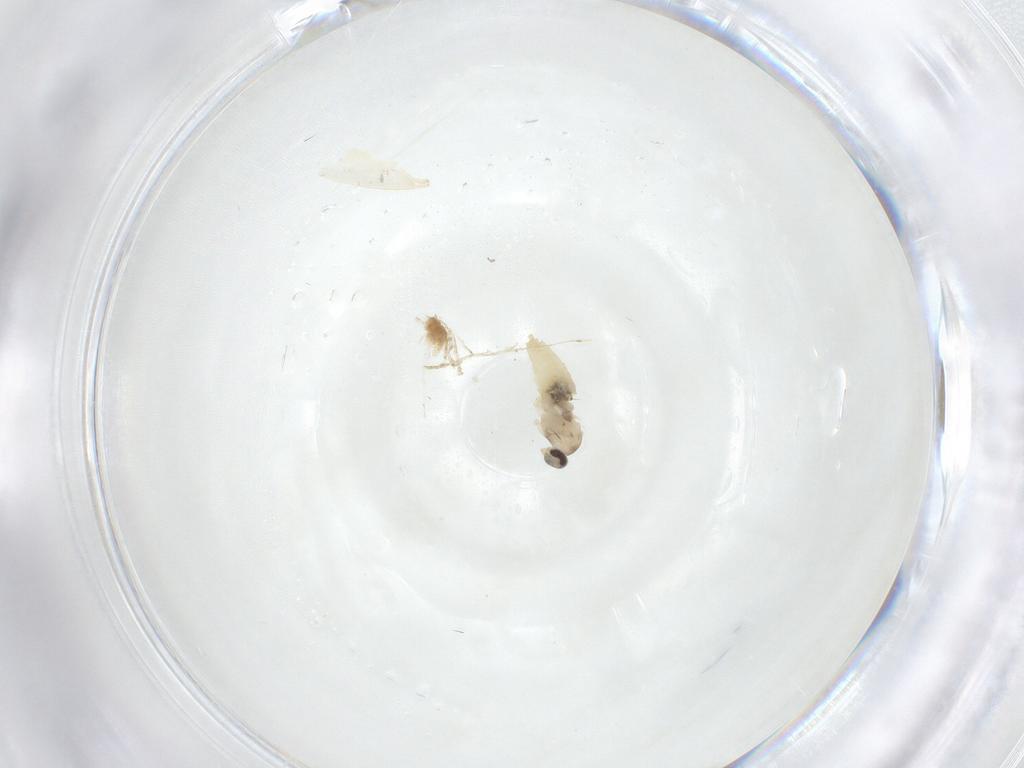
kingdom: Animalia
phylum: Arthropoda
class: Insecta
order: Diptera
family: Cecidomyiidae
